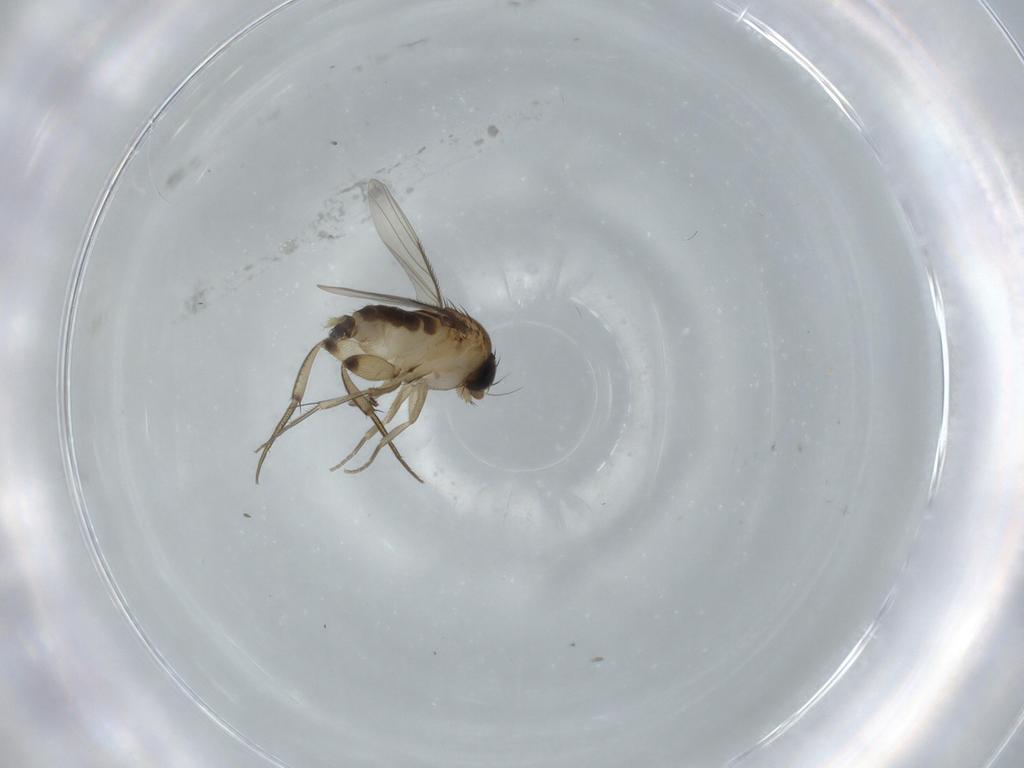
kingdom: Animalia
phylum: Arthropoda
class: Insecta
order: Diptera
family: Phoridae
